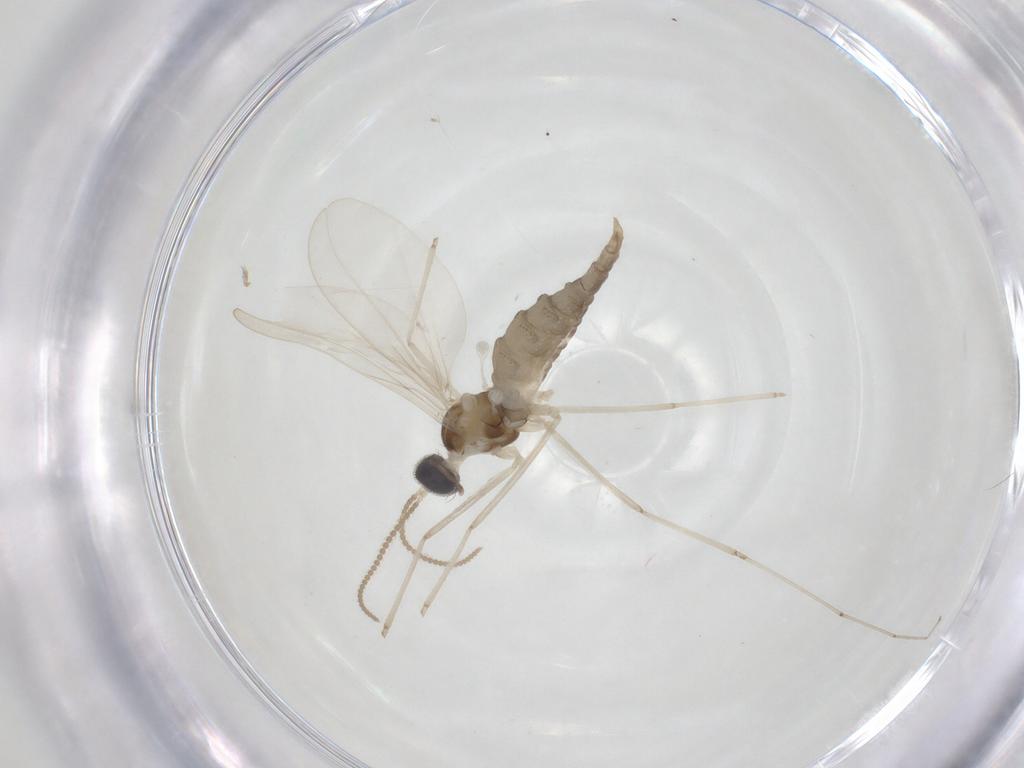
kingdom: Animalia
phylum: Arthropoda
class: Insecta
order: Diptera
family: Cecidomyiidae
